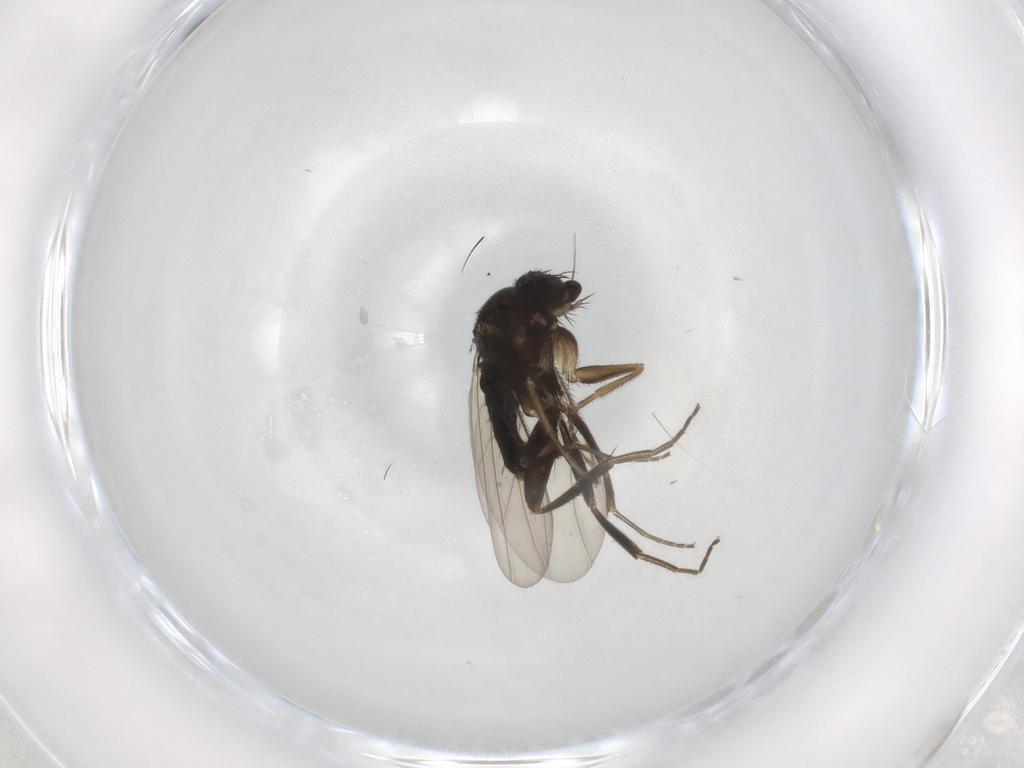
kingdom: Animalia
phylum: Arthropoda
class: Insecta
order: Diptera
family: Phoridae
